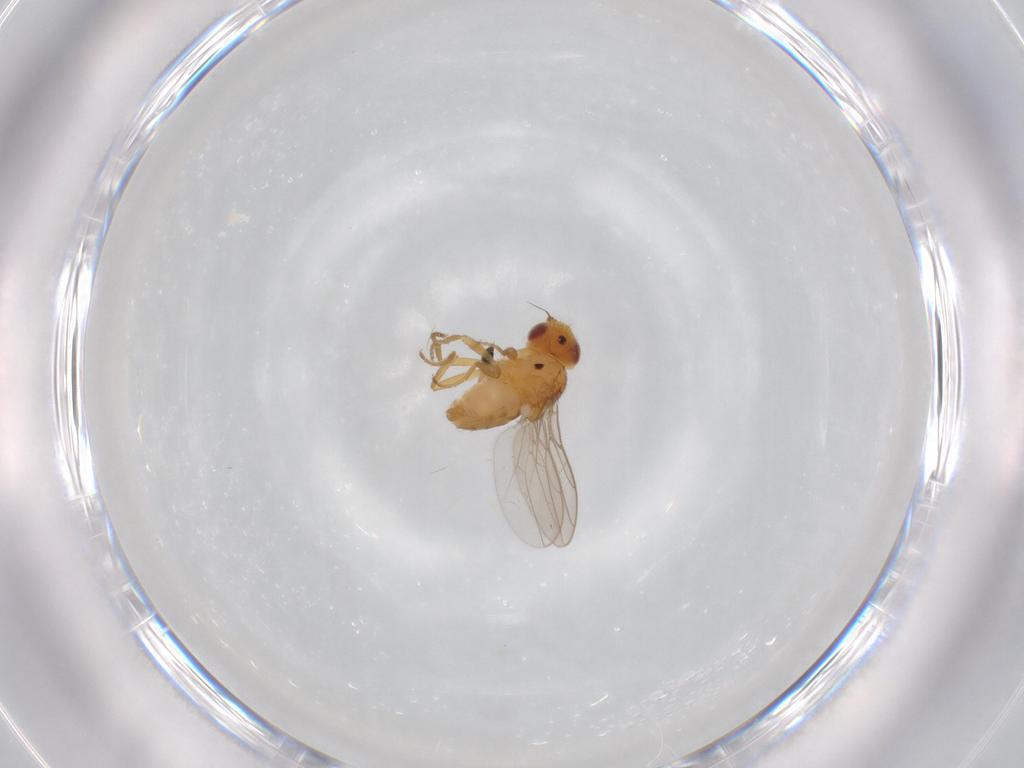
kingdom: Animalia
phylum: Arthropoda
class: Insecta
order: Diptera
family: Chloropidae
